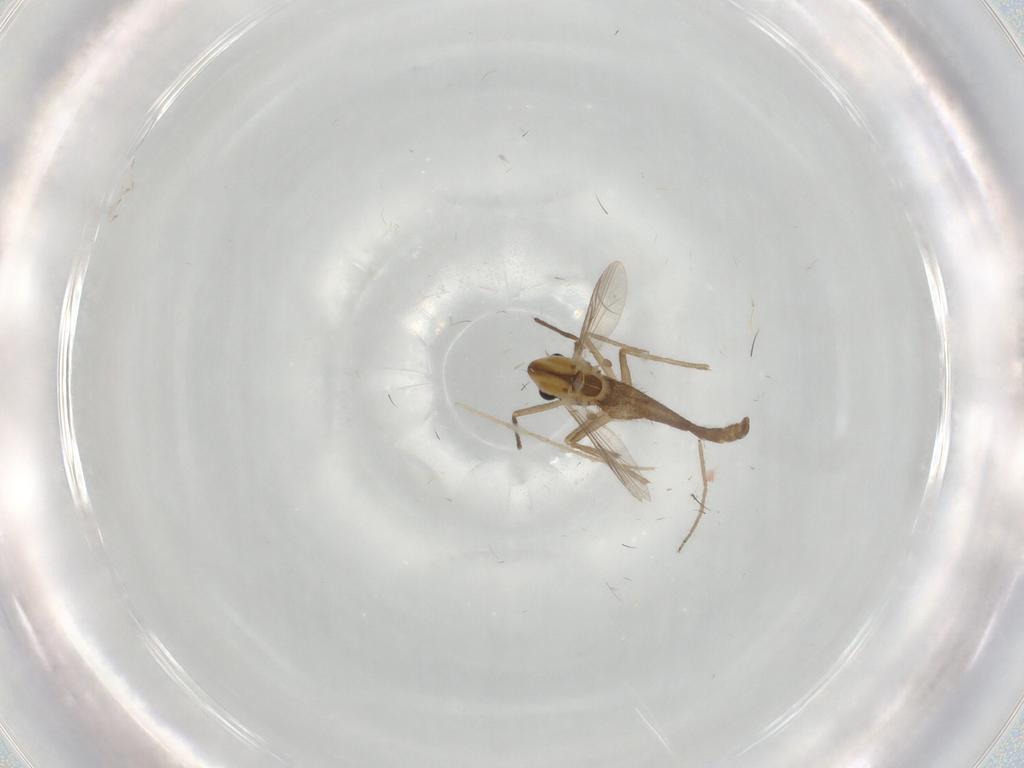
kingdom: Animalia
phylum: Arthropoda
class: Insecta
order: Diptera
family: Chironomidae
